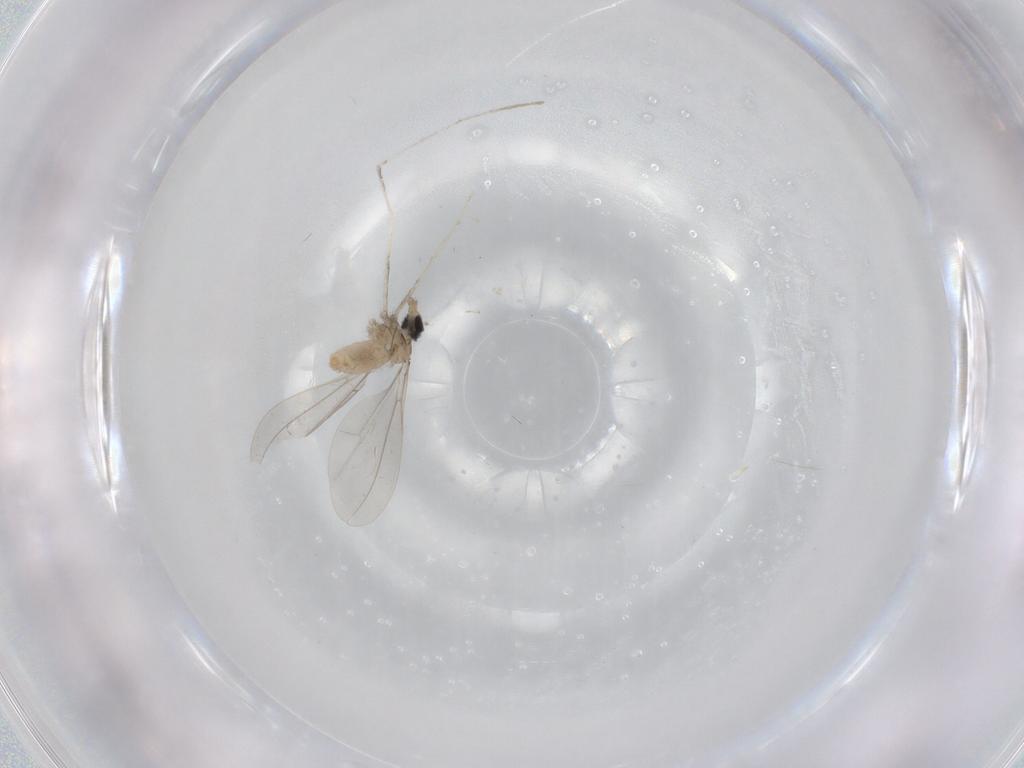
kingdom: Animalia
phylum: Arthropoda
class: Insecta
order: Diptera
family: Cecidomyiidae
